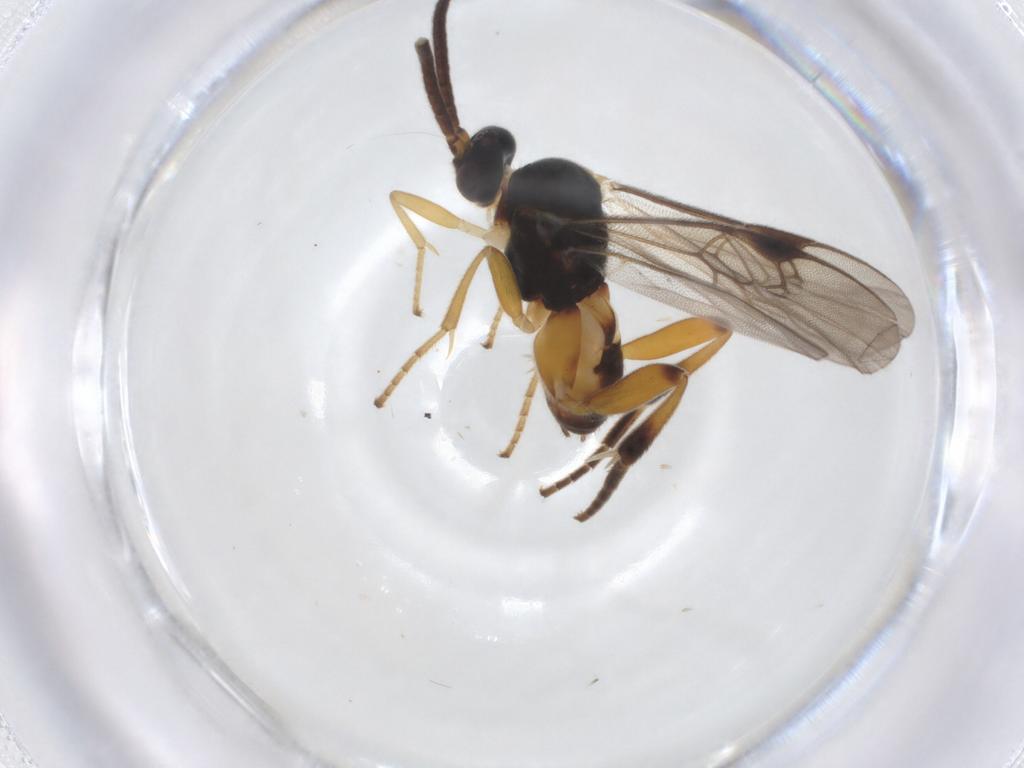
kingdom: Animalia
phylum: Arthropoda
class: Insecta
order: Hymenoptera
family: Braconidae
